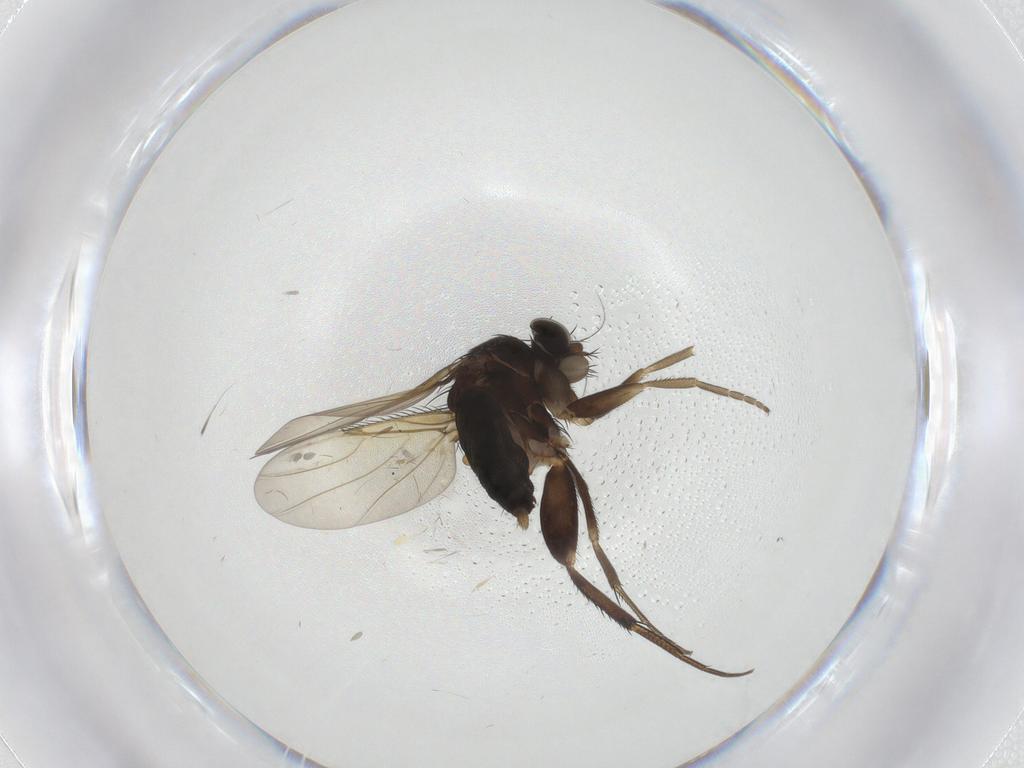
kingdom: Animalia
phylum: Arthropoda
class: Insecta
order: Diptera
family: Phoridae
